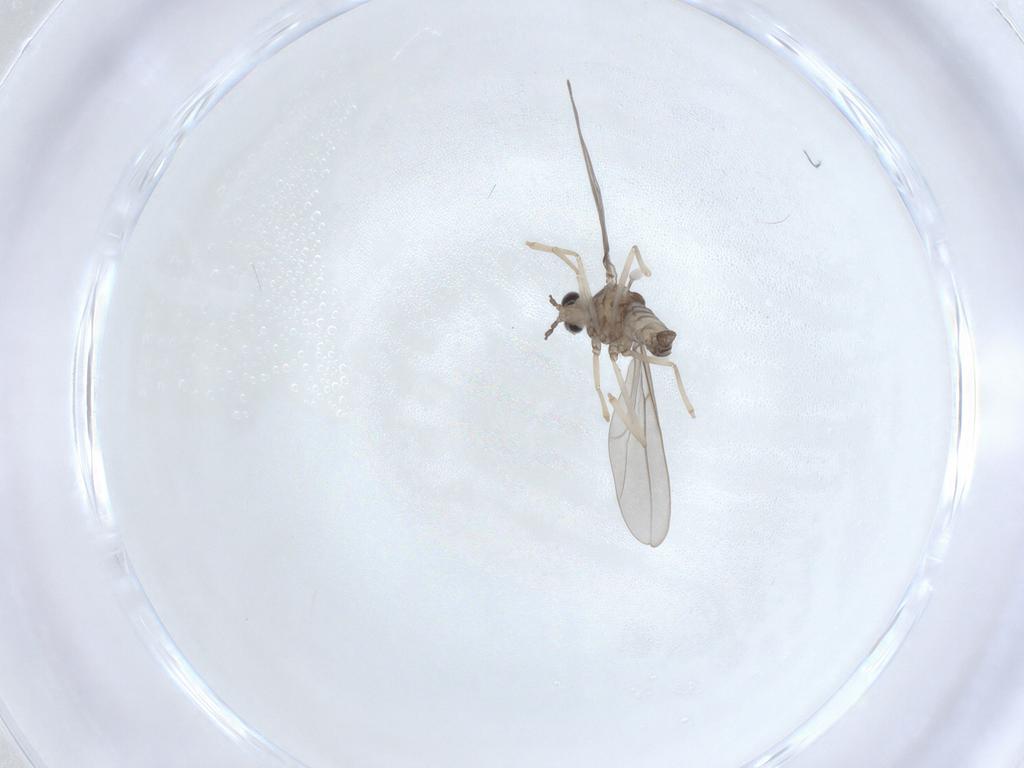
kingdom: Animalia
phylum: Arthropoda
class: Insecta
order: Diptera
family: Cecidomyiidae
